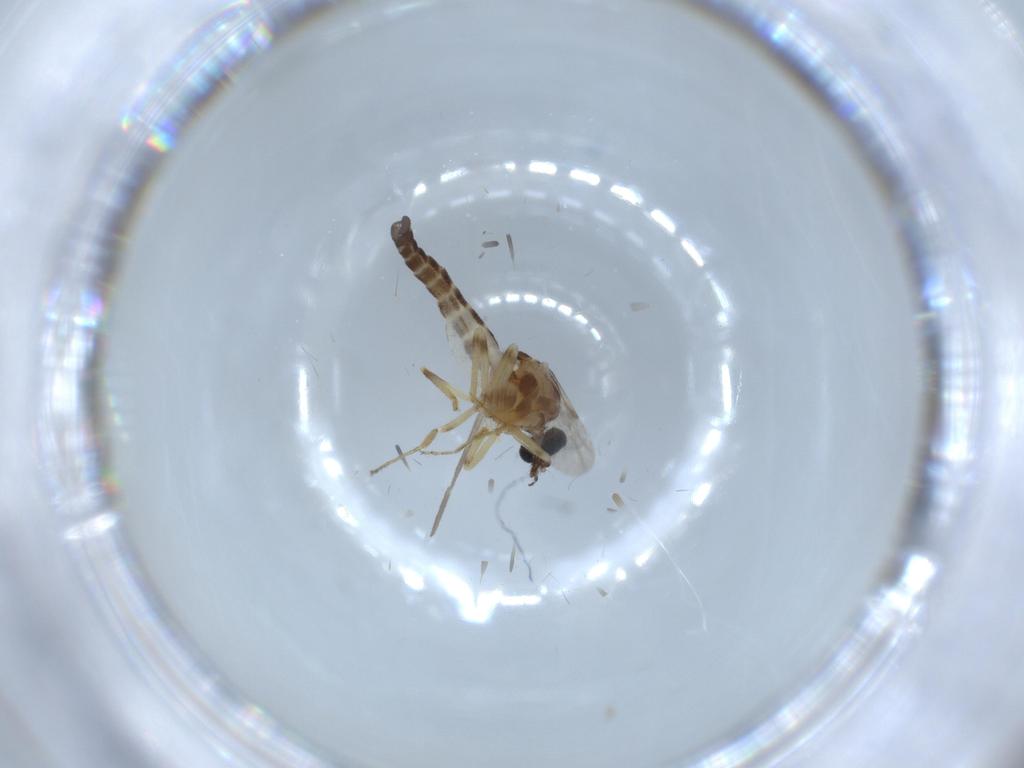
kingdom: Animalia
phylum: Arthropoda
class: Insecta
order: Diptera
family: Ceratopogonidae
